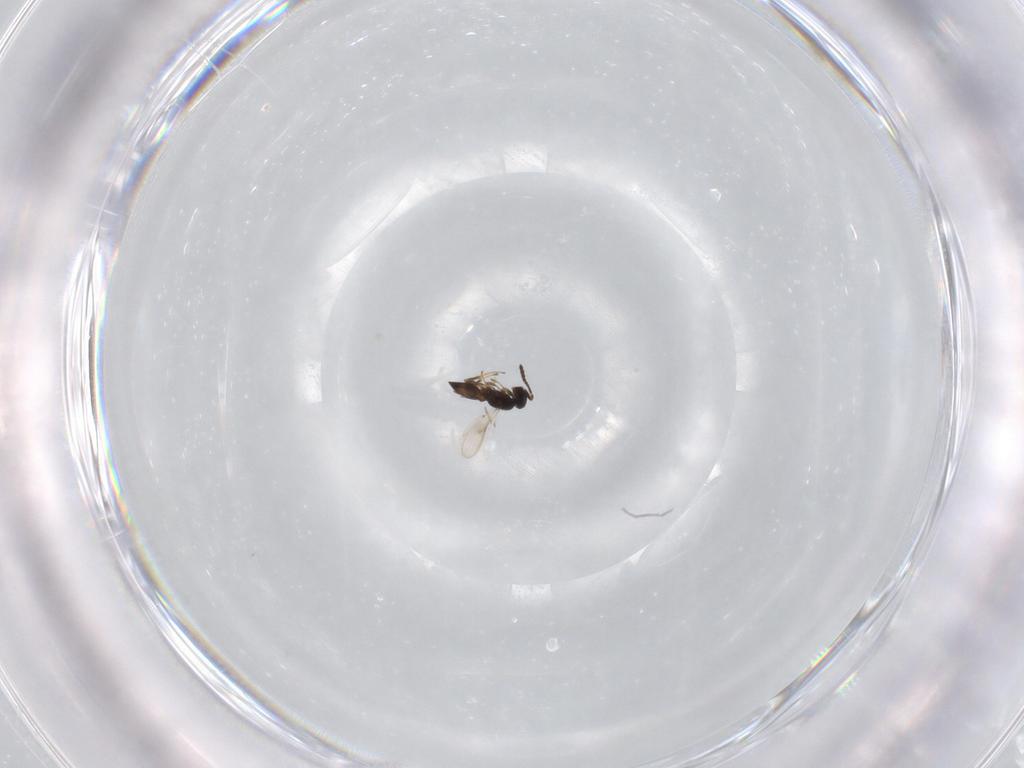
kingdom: Animalia
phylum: Arthropoda
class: Insecta
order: Hymenoptera
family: Scelionidae
